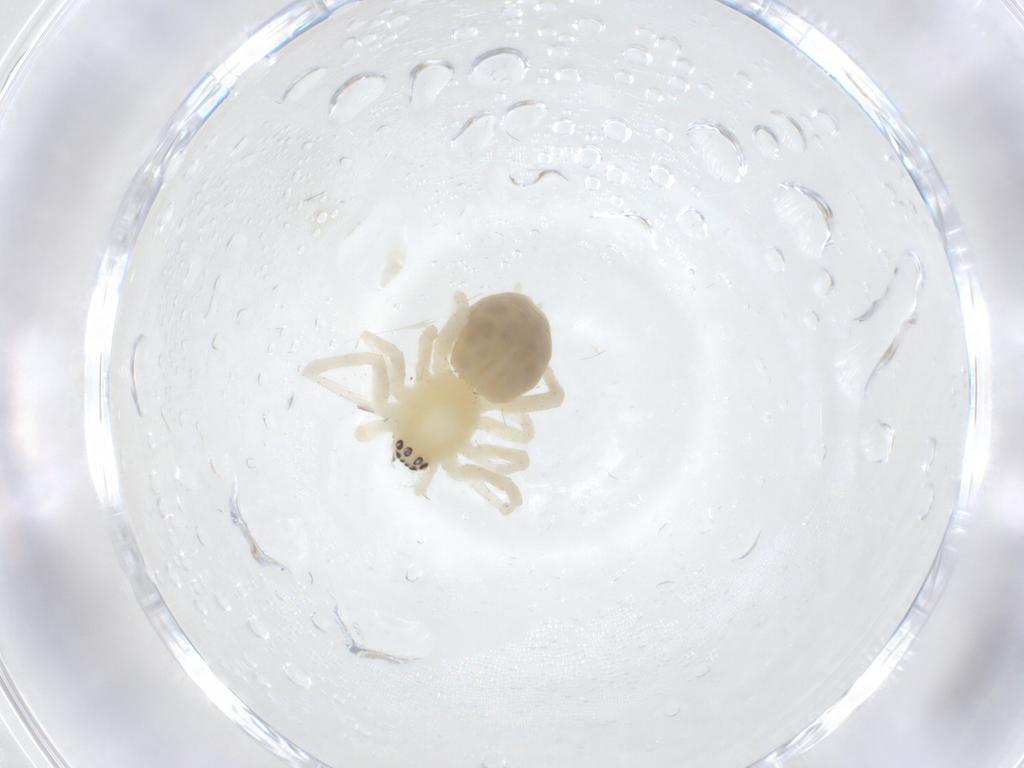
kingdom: Animalia
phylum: Arthropoda
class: Arachnida
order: Araneae
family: Anyphaenidae
